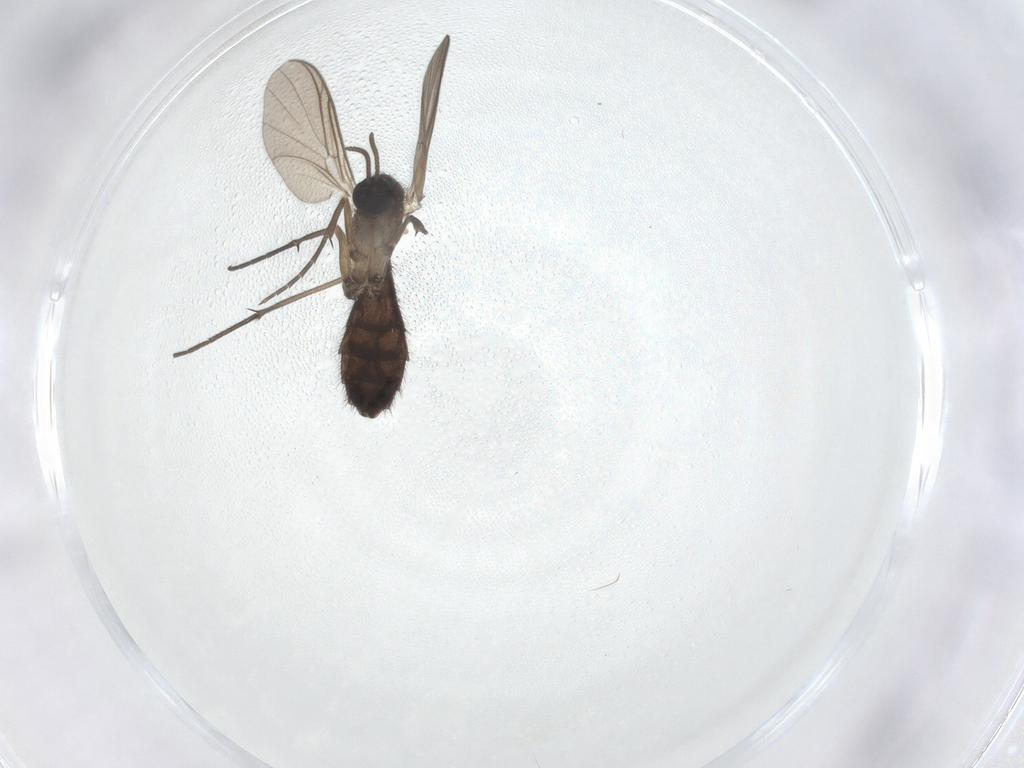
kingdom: Animalia
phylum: Arthropoda
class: Insecta
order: Diptera
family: Keroplatidae
